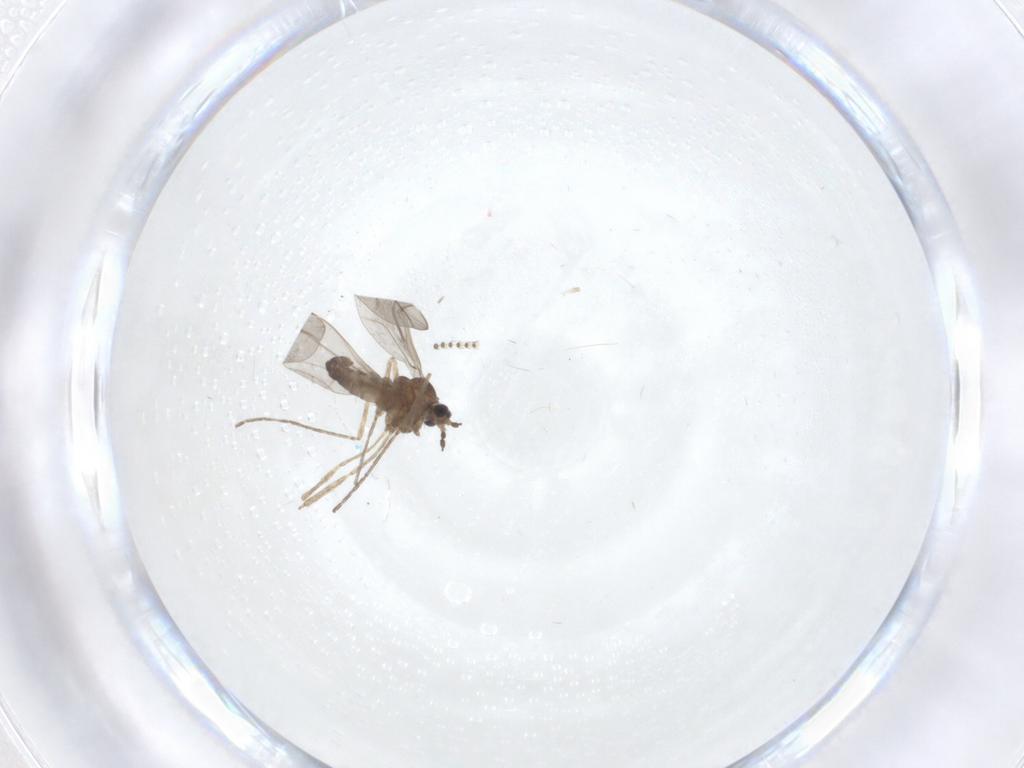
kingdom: Animalia
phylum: Arthropoda
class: Insecta
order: Diptera
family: Cecidomyiidae
